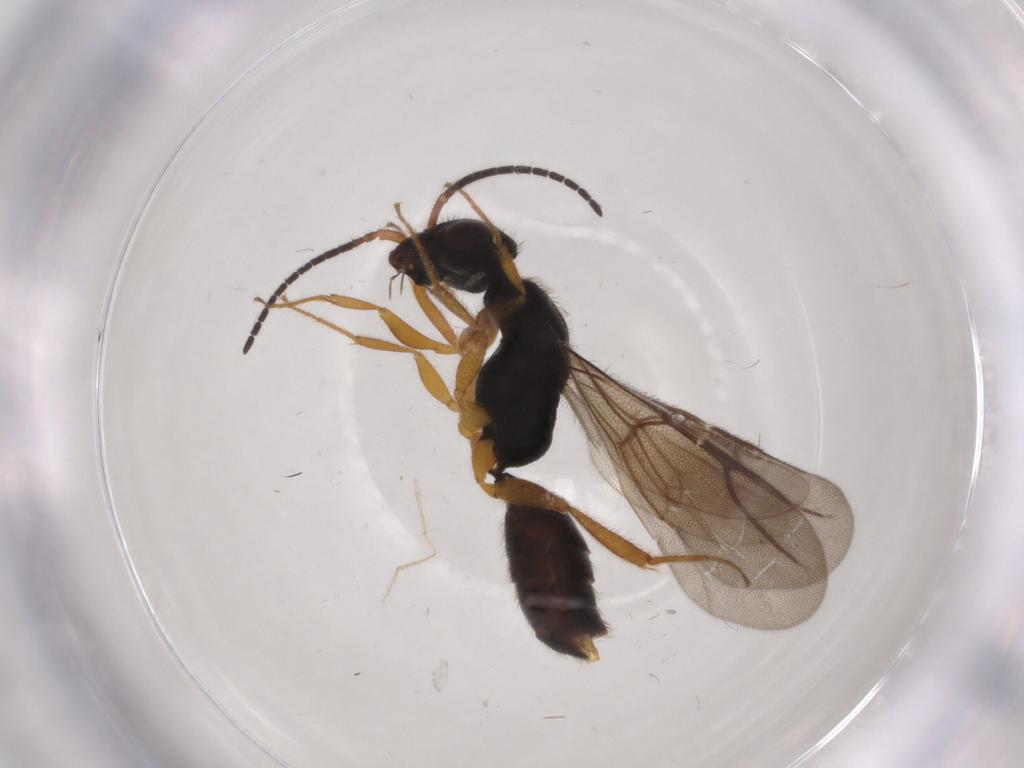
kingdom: Animalia
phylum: Arthropoda
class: Insecta
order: Hymenoptera
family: Bethylidae
